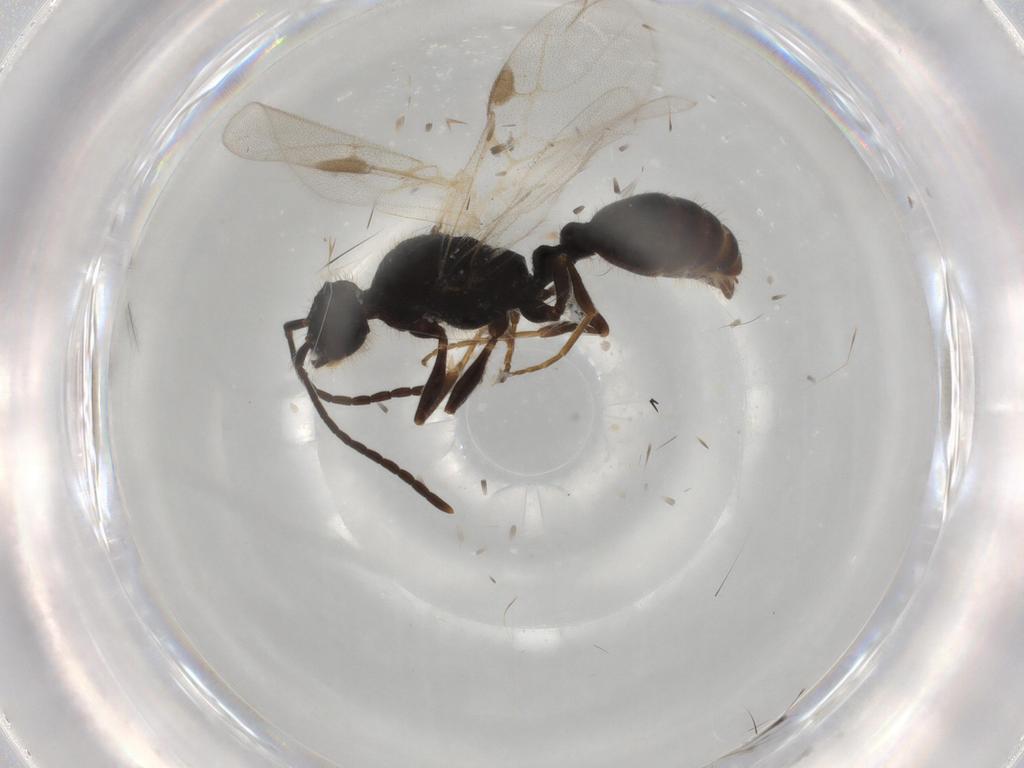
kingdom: Animalia
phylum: Arthropoda
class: Insecta
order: Hymenoptera
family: Formicidae
